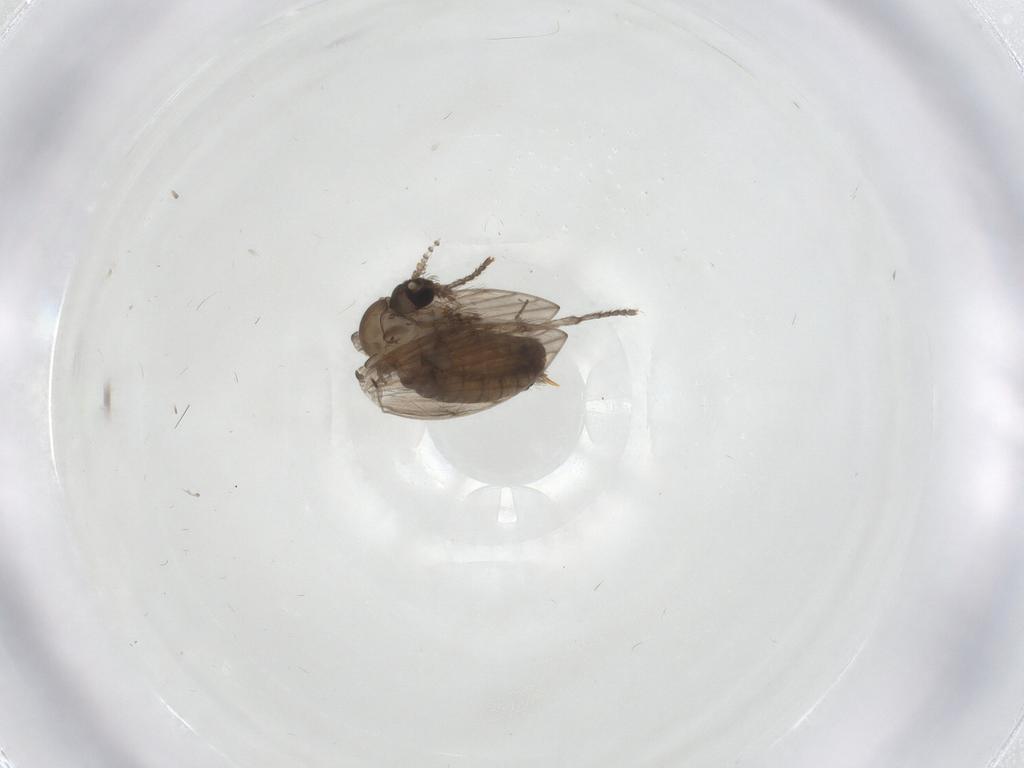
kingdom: Animalia
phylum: Arthropoda
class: Insecta
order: Diptera
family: Psychodidae
